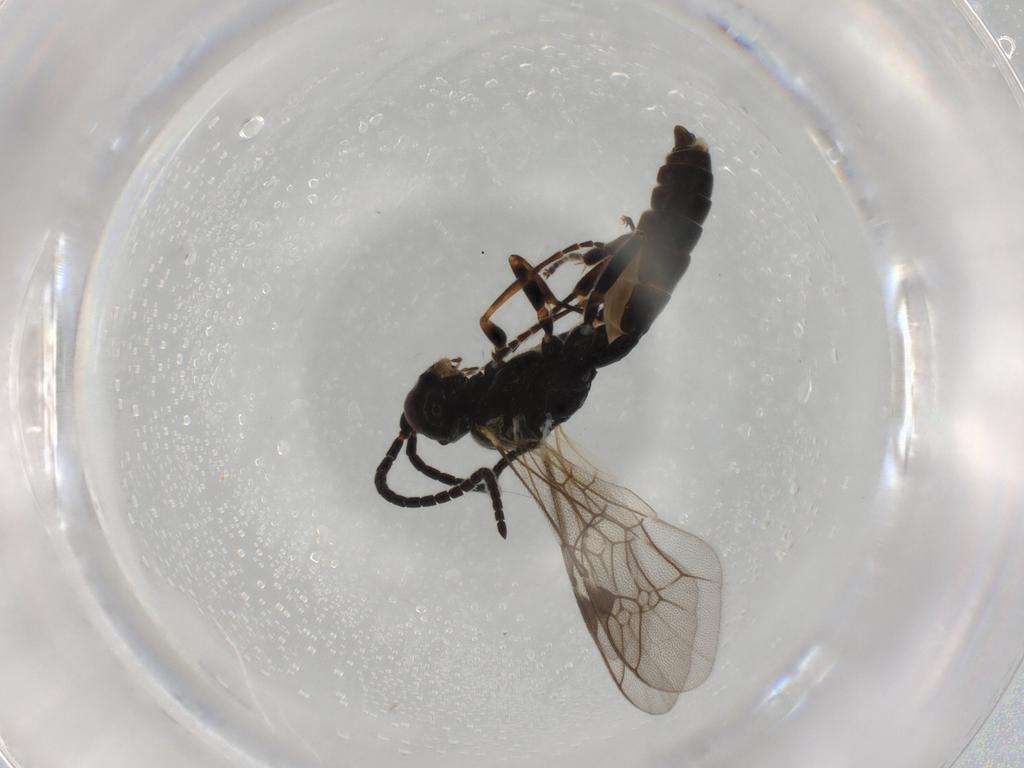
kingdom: Animalia
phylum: Arthropoda
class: Insecta
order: Hymenoptera
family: Ichneumonidae
